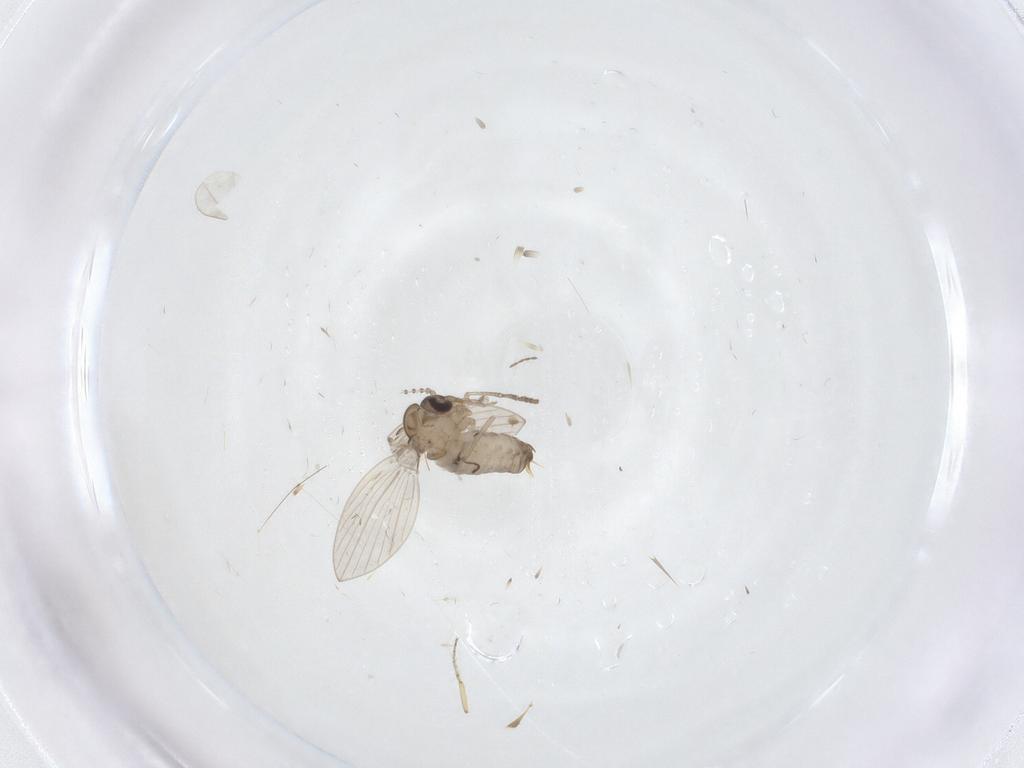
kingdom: Animalia
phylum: Arthropoda
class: Insecta
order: Diptera
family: Psychodidae
